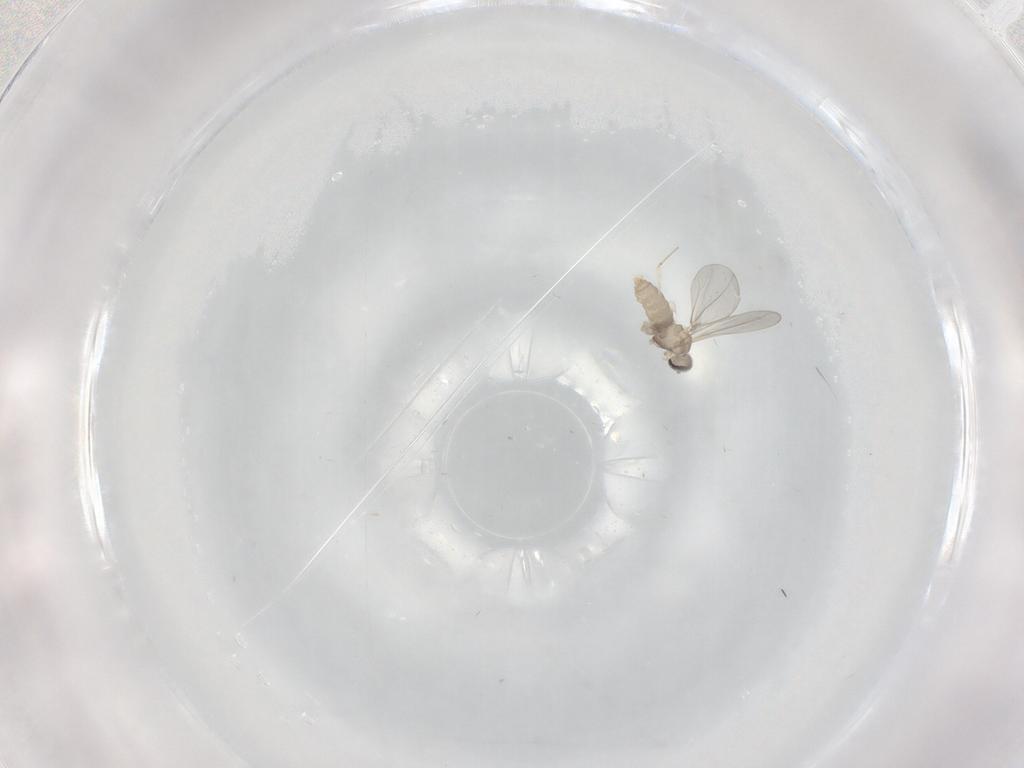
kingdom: Animalia
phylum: Arthropoda
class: Insecta
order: Diptera
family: Cecidomyiidae
